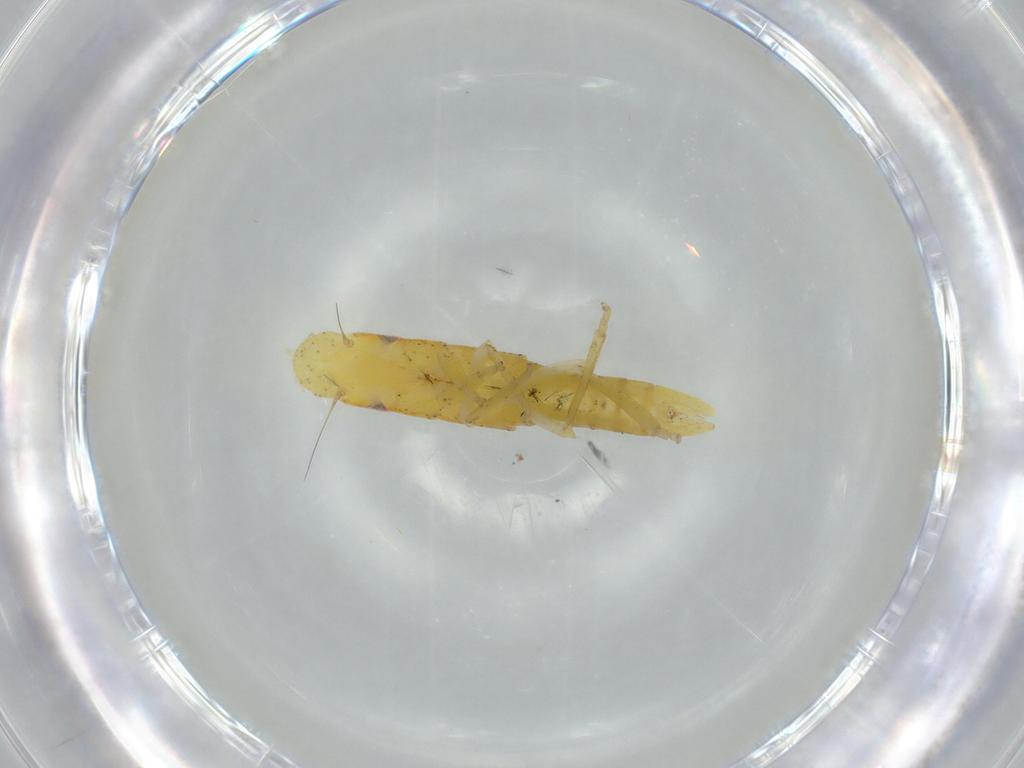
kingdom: Animalia
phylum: Arthropoda
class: Insecta
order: Hemiptera
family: Cicadellidae
